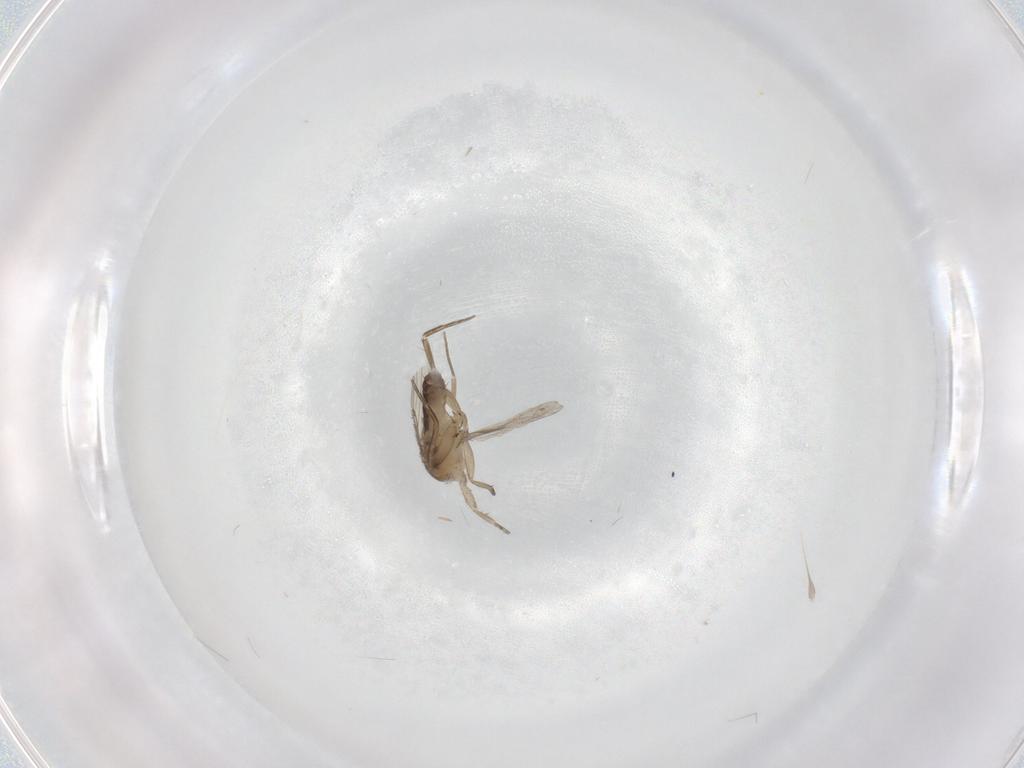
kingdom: Animalia
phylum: Arthropoda
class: Insecta
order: Diptera
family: Phoridae
